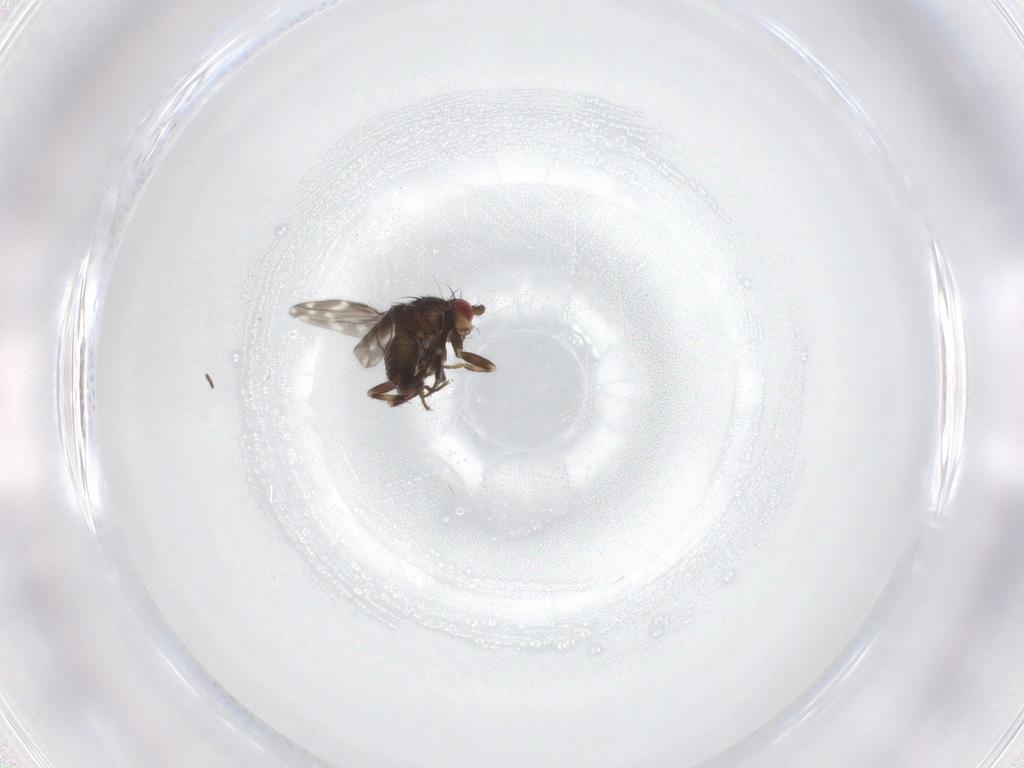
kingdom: Animalia
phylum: Arthropoda
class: Insecta
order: Diptera
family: Sphaeroceridae
